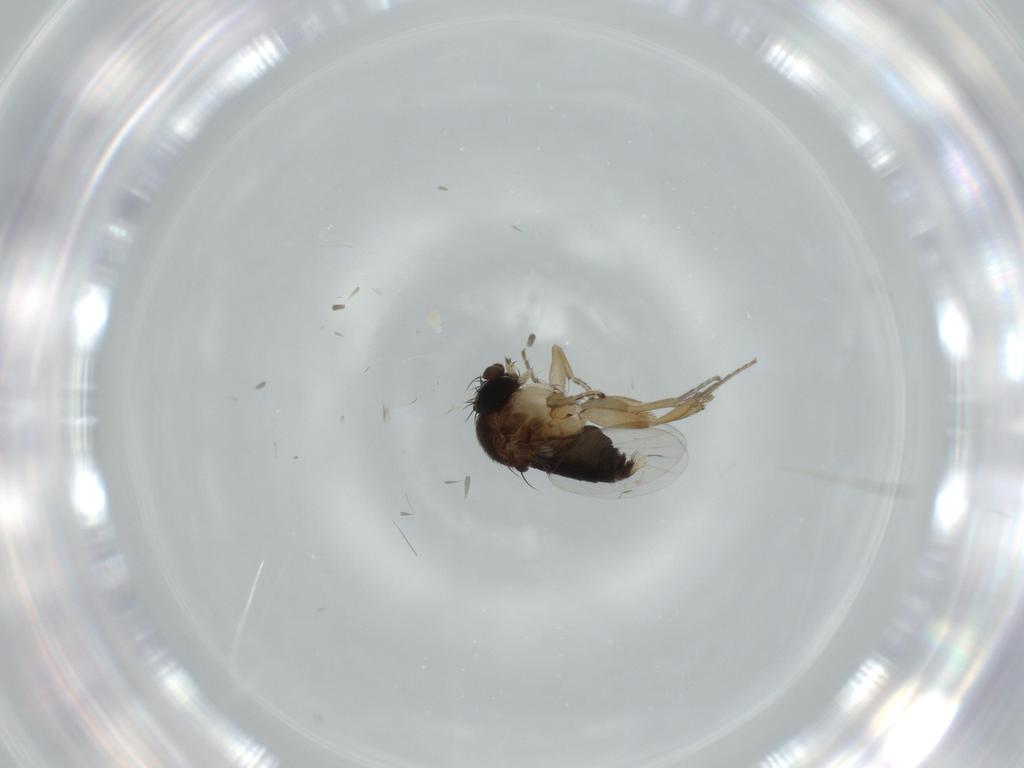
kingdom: Animalia
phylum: Arthropoda
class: Insecta
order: Diptera
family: Phoridae
